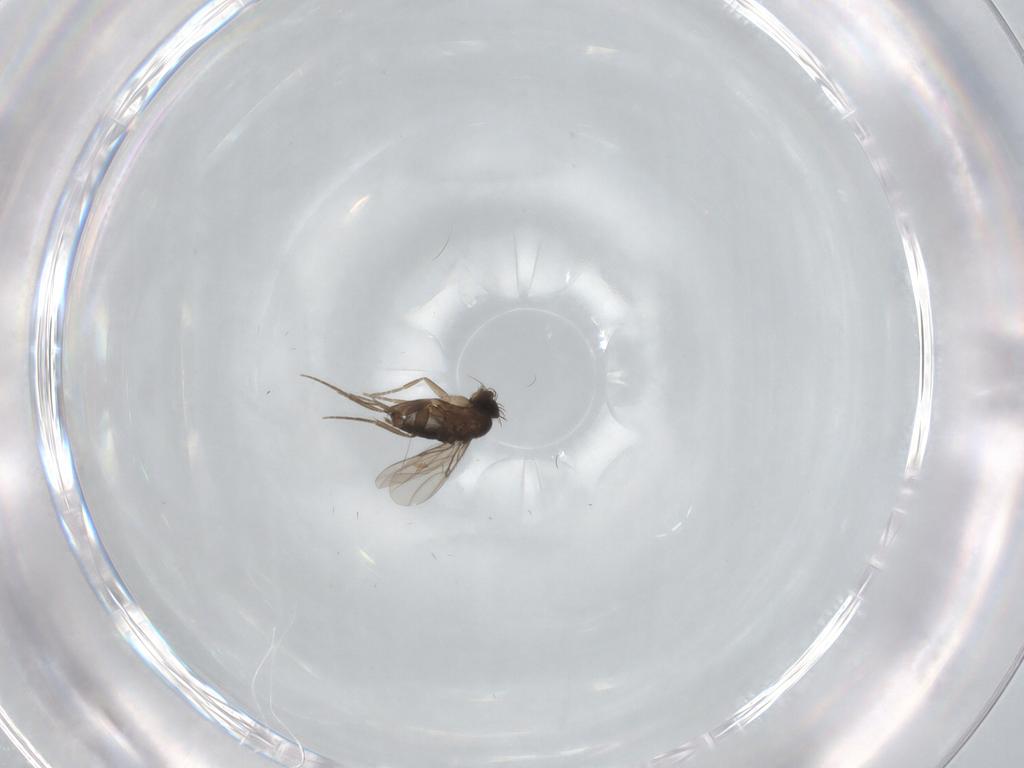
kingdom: Animalia
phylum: Arthropoda
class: Insecta
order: Diptera
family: Phoridae
